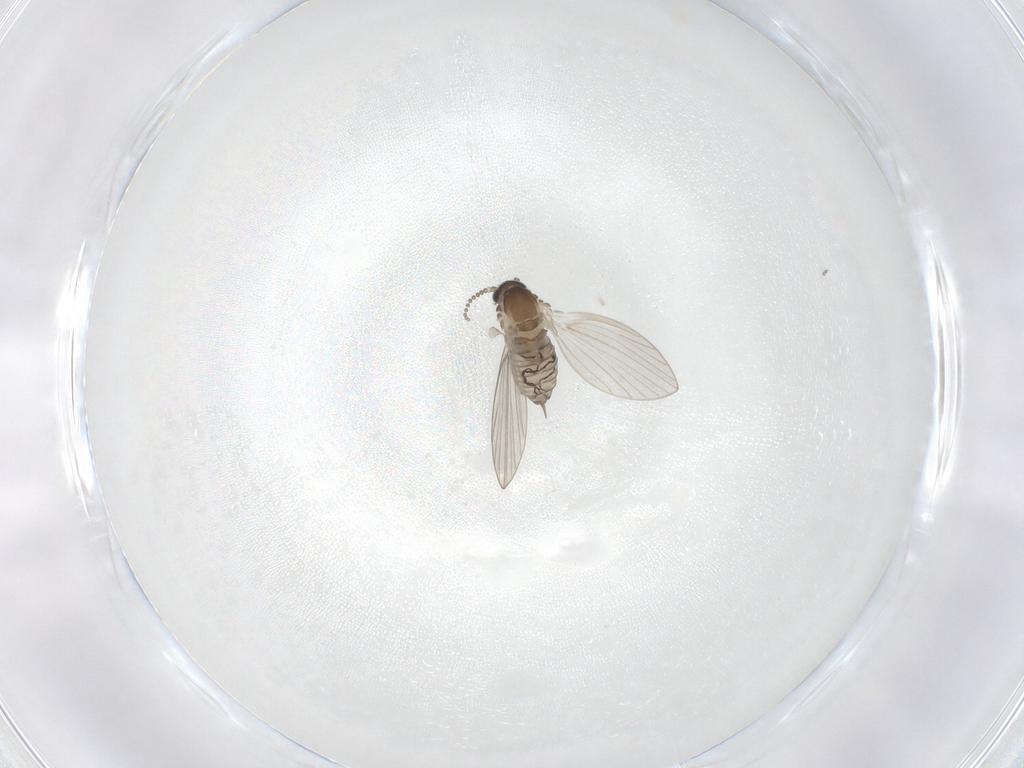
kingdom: Animalia
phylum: Arthropoda
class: Insecta
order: Diptera
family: Psychodidae
